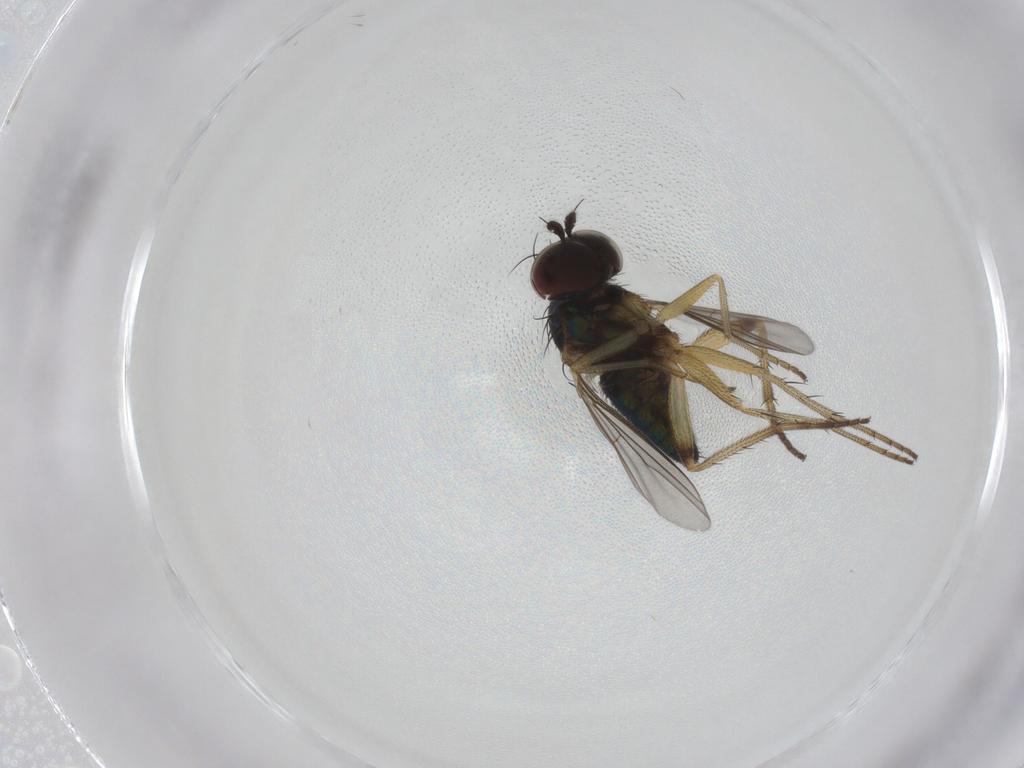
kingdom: Animalia
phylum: Arthropoda
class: Insecta
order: Diptera
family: Dolichopodidae
